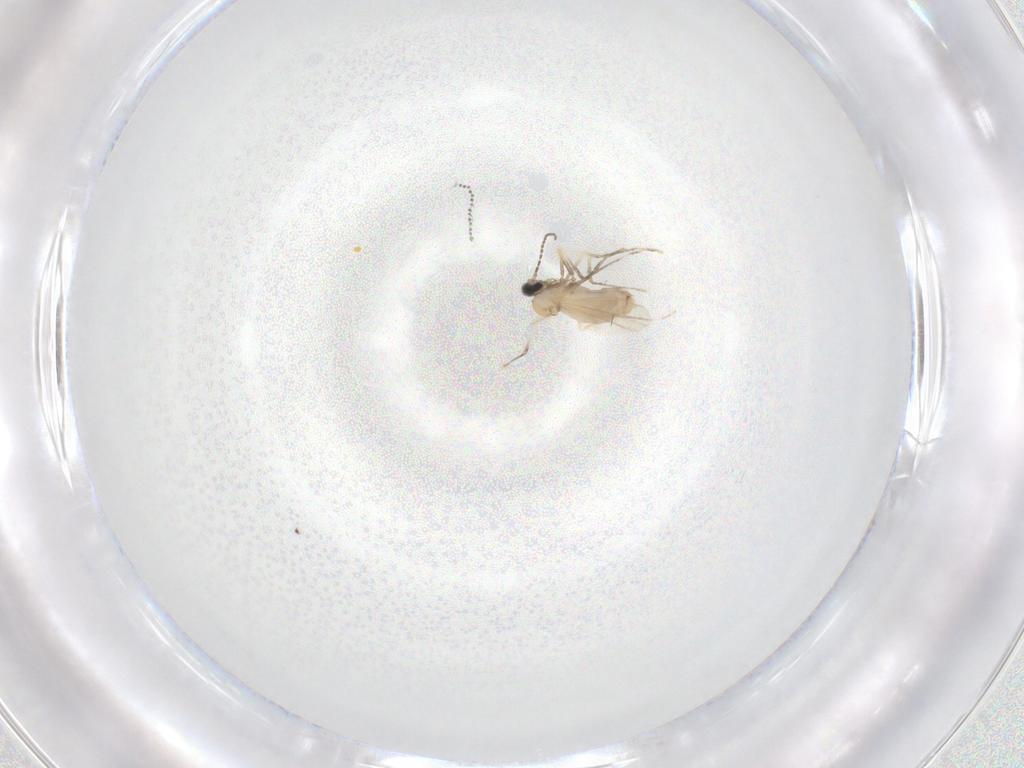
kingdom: Animalia
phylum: Arthropoda
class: Insecta
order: Diptera
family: Cecidomyiidae
